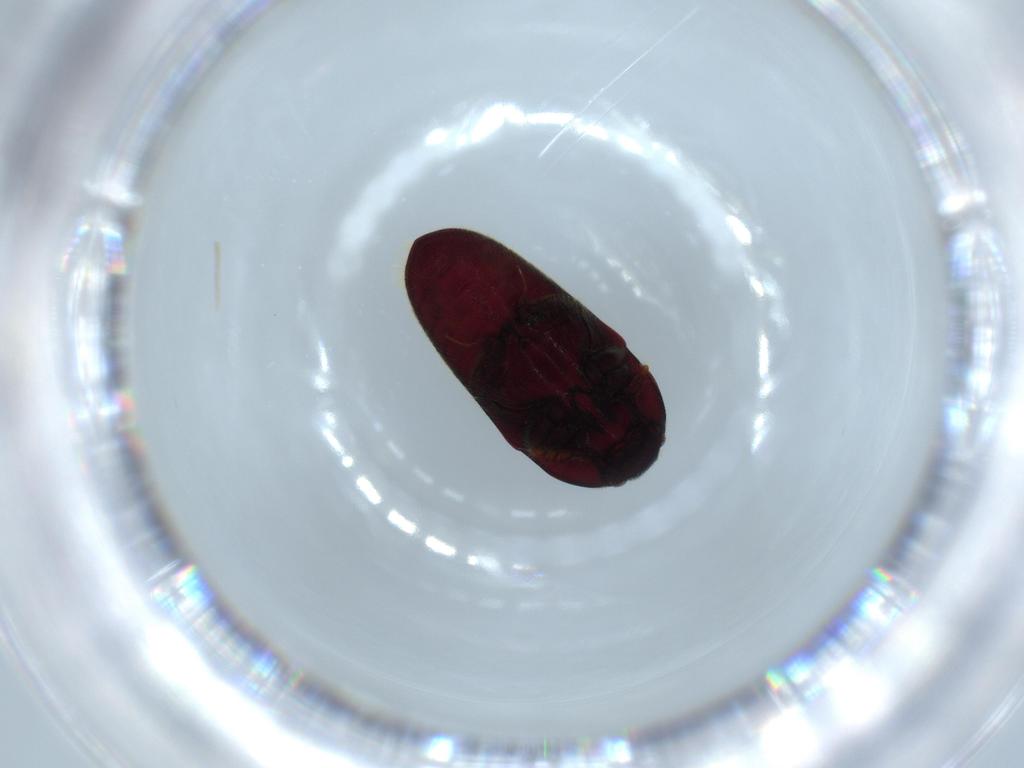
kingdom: Animalia
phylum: Arthropoda
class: Insecta
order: Coleoptera
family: Throscidae
